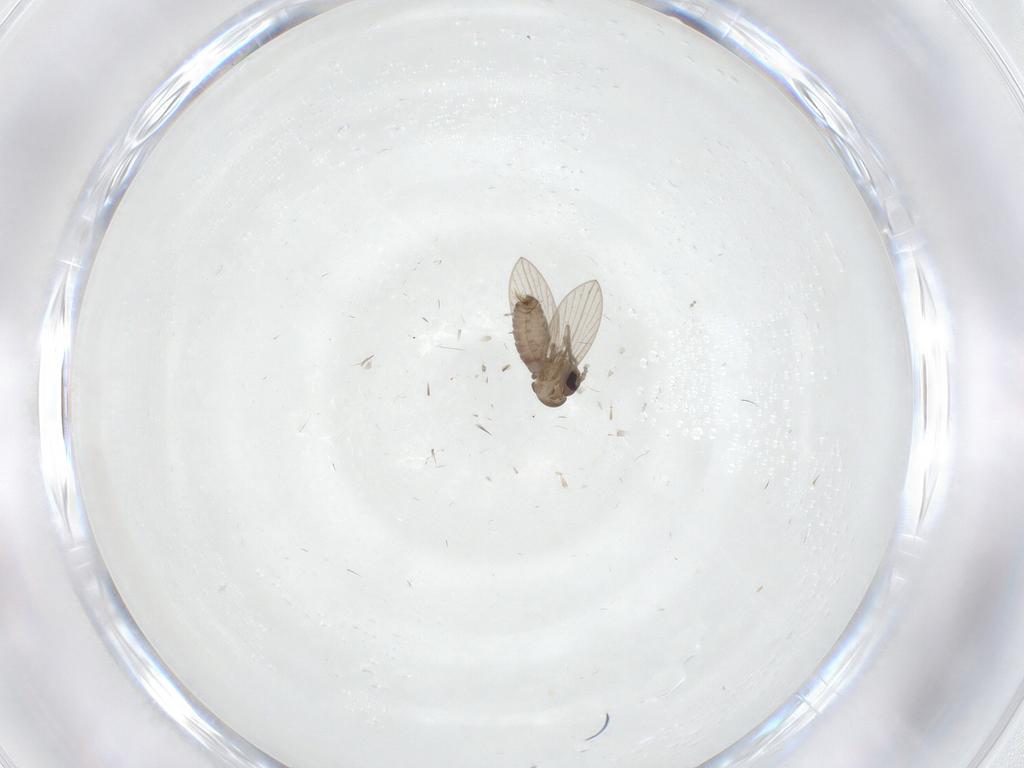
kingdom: Animalia
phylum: Arthropoda
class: Insecta
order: Diptera
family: Psychodidae
